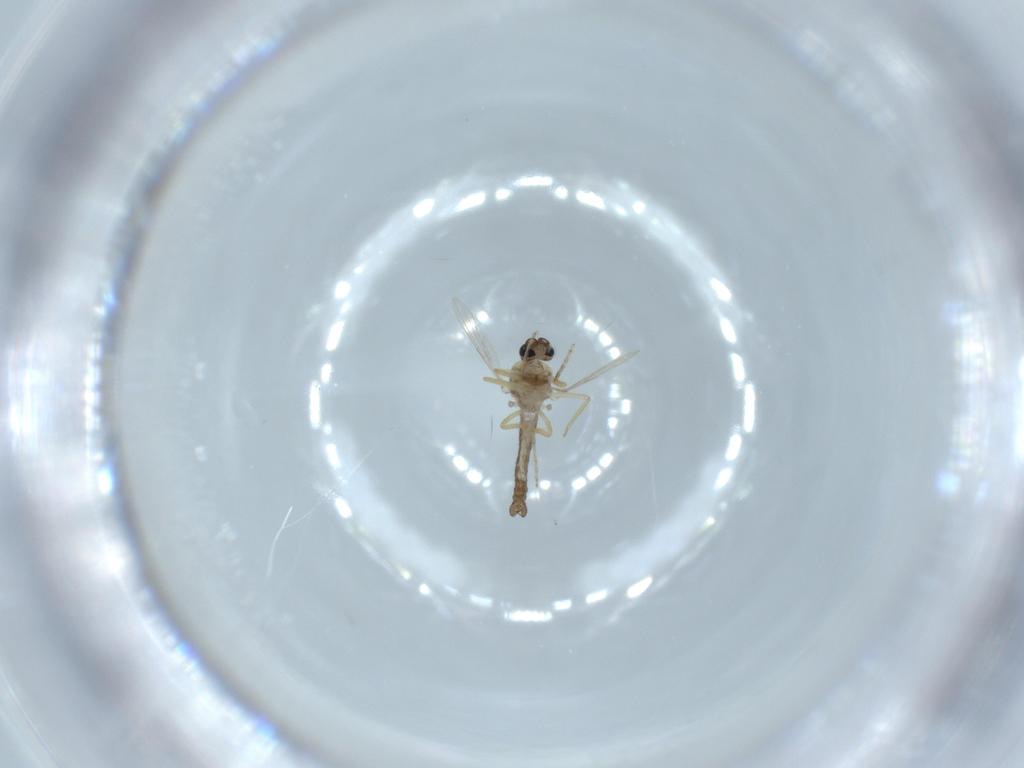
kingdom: Animalia
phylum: Arthropoda
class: Insecta
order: Diptera
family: Ceratopogonidae
